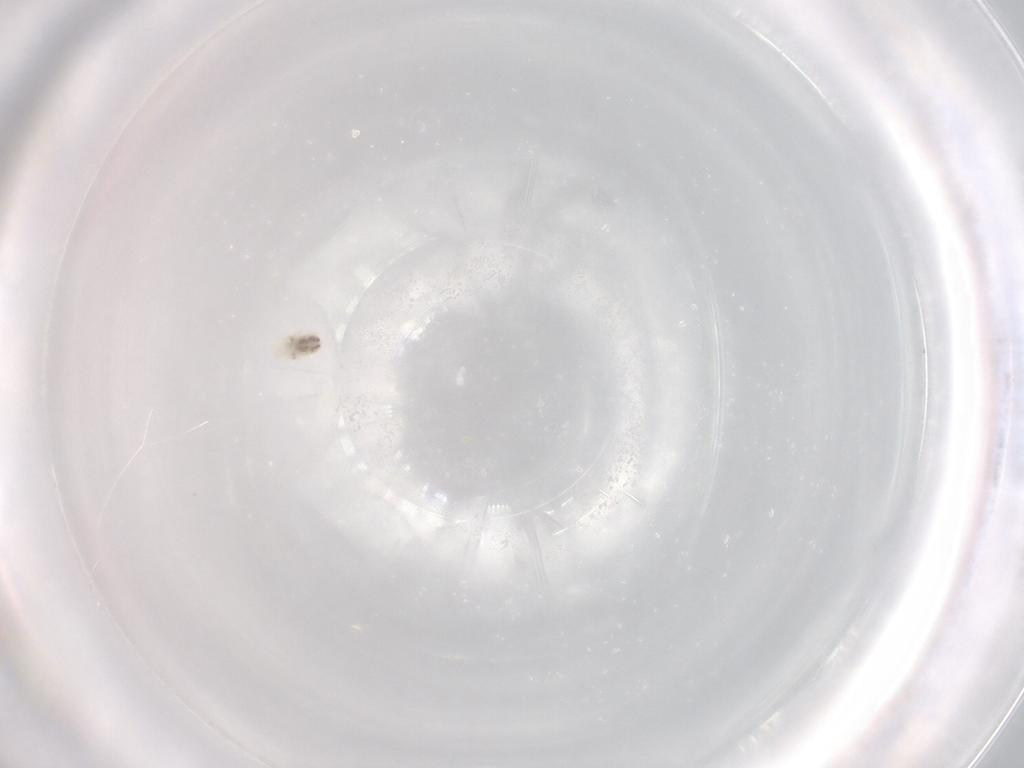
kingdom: Animalia
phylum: Arthropoda
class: Arachnida
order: Trombidiformes
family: Rhagidiidae
